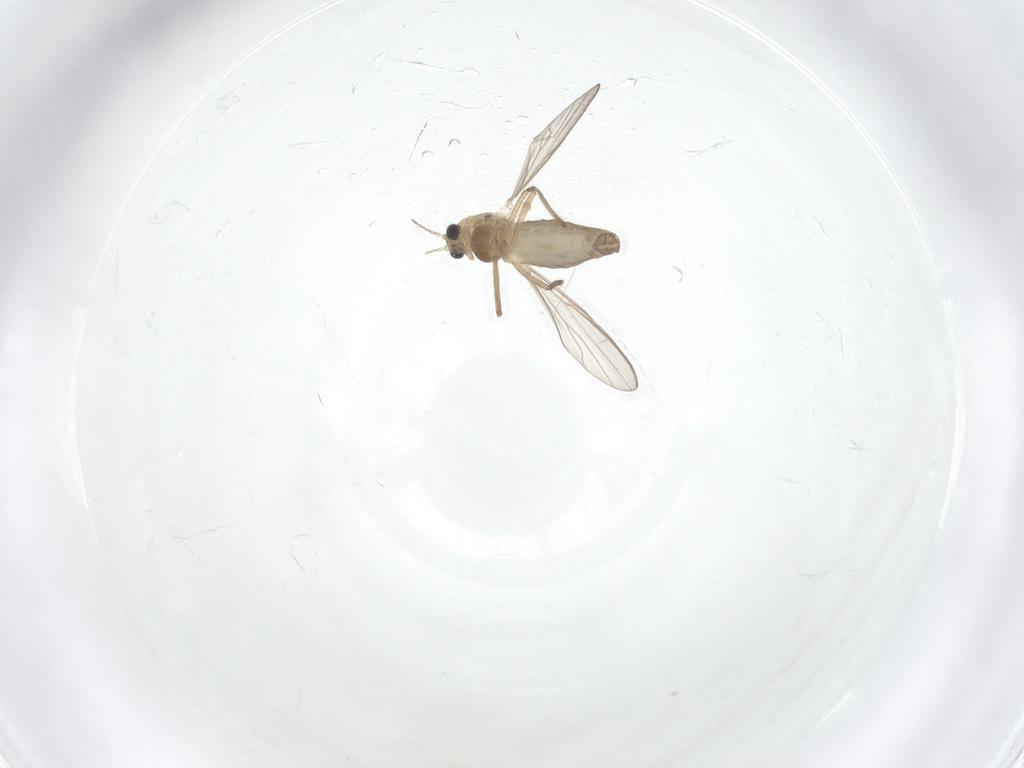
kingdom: Animalia
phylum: Arthropoda
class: Insecta
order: Diptera
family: Chironomidae
